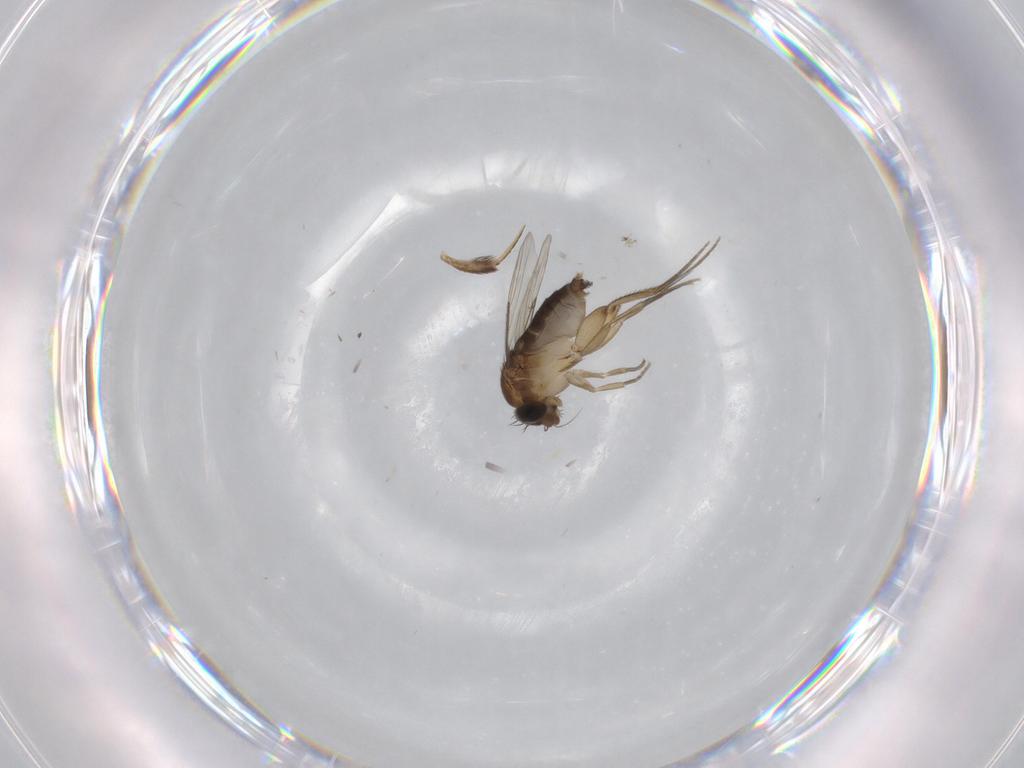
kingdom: Animalia
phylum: Arthropoda
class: Insecta
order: Diptera
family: Phoridae
